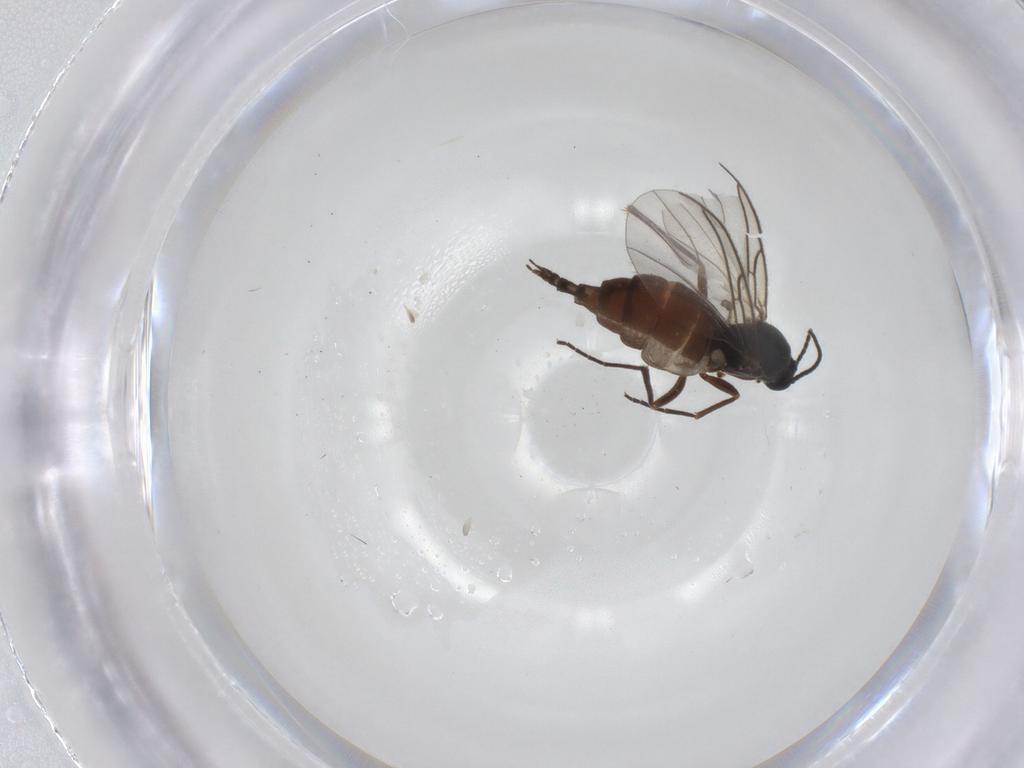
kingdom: Animalia
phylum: Arthropoda
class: Insecta
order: Diptera
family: Sciaridae
